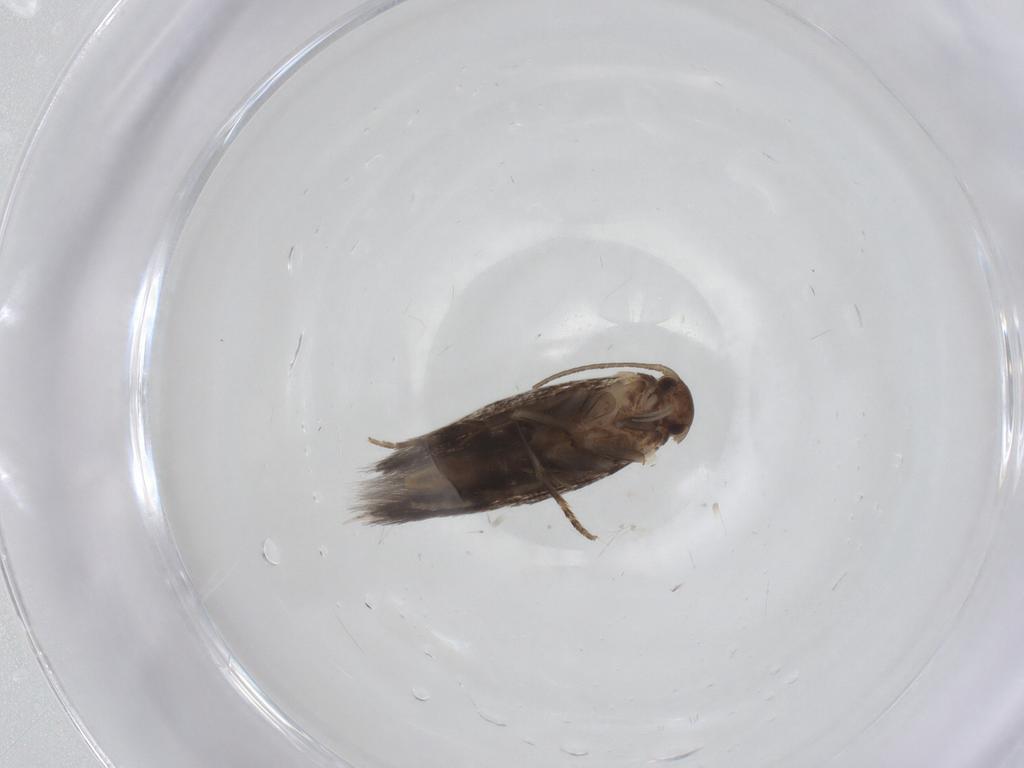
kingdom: Animalia
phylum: Arthropoda
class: Insecta
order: Lepidoptera
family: Elachistidae
